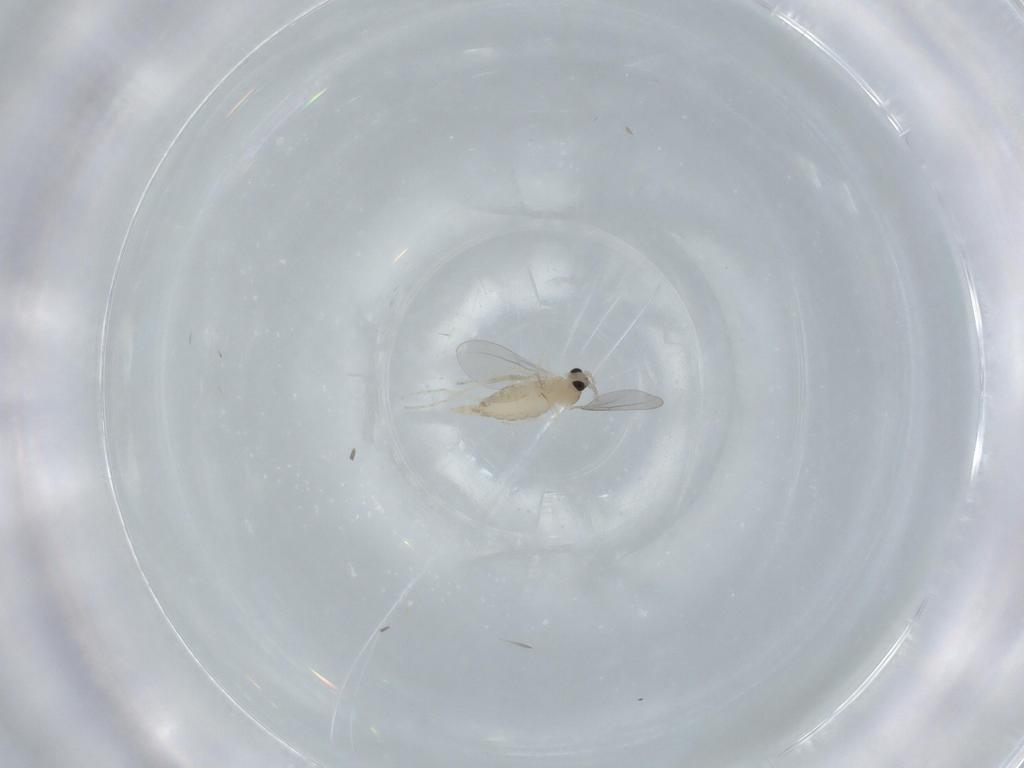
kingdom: Animalia
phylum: Arthropoda
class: Insecta
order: Diptera
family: Cecidomyiidae
